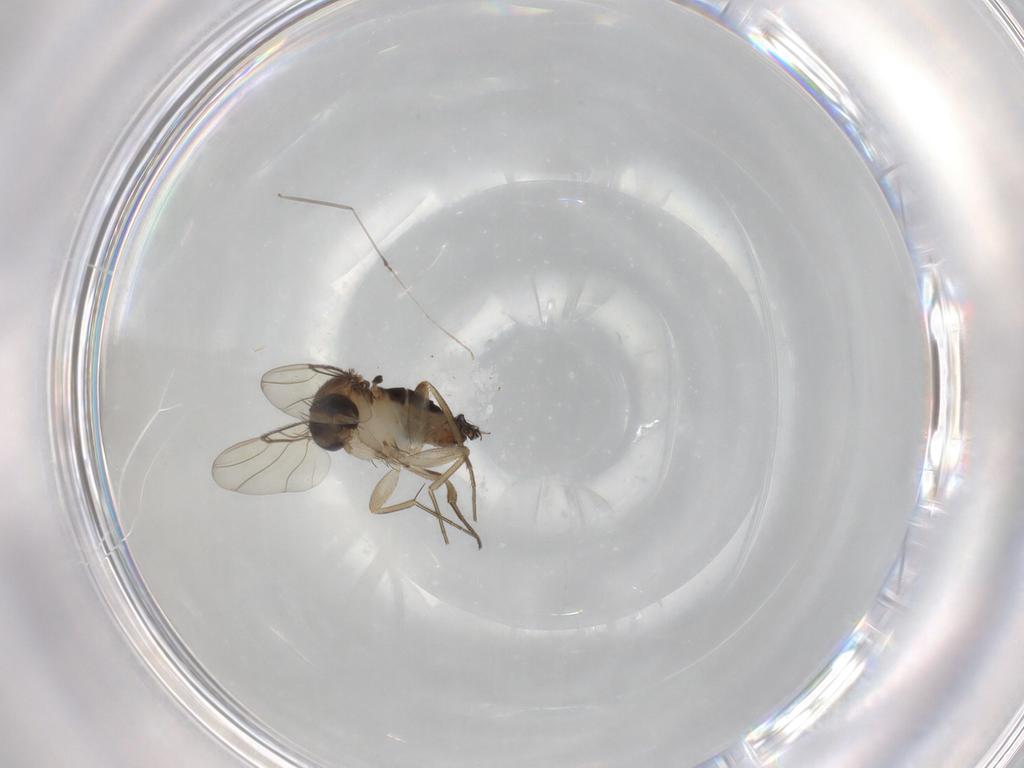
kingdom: Animalia
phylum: Arthropoda
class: Insecta
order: Diptera
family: Phoridae
